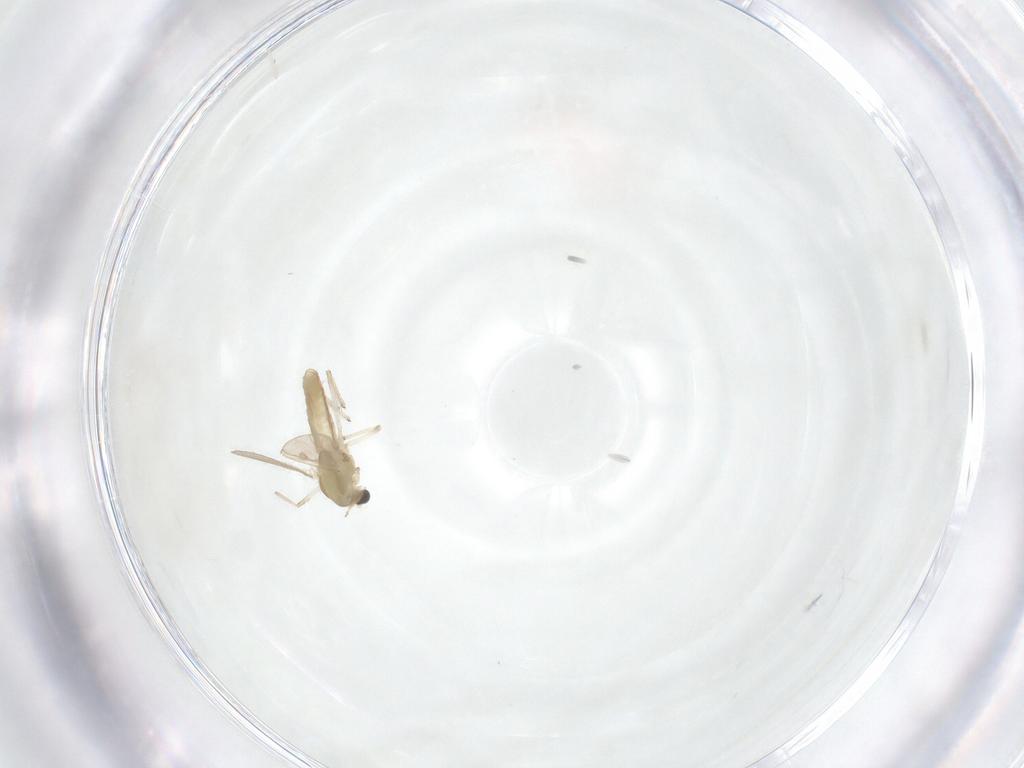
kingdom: Animalia
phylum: Arthropoda
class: Insecta
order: Diptera
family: Chironomidae
